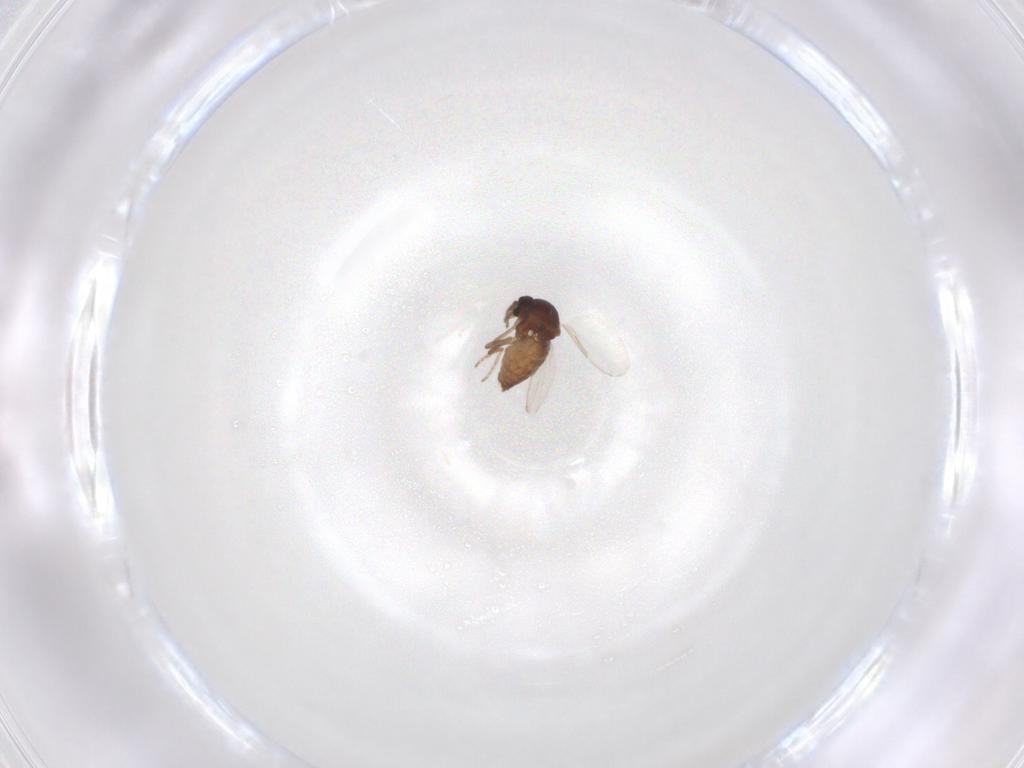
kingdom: Animalia
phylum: Arthropoda
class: Insecta
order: Diptera
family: Ceratopogonidae
